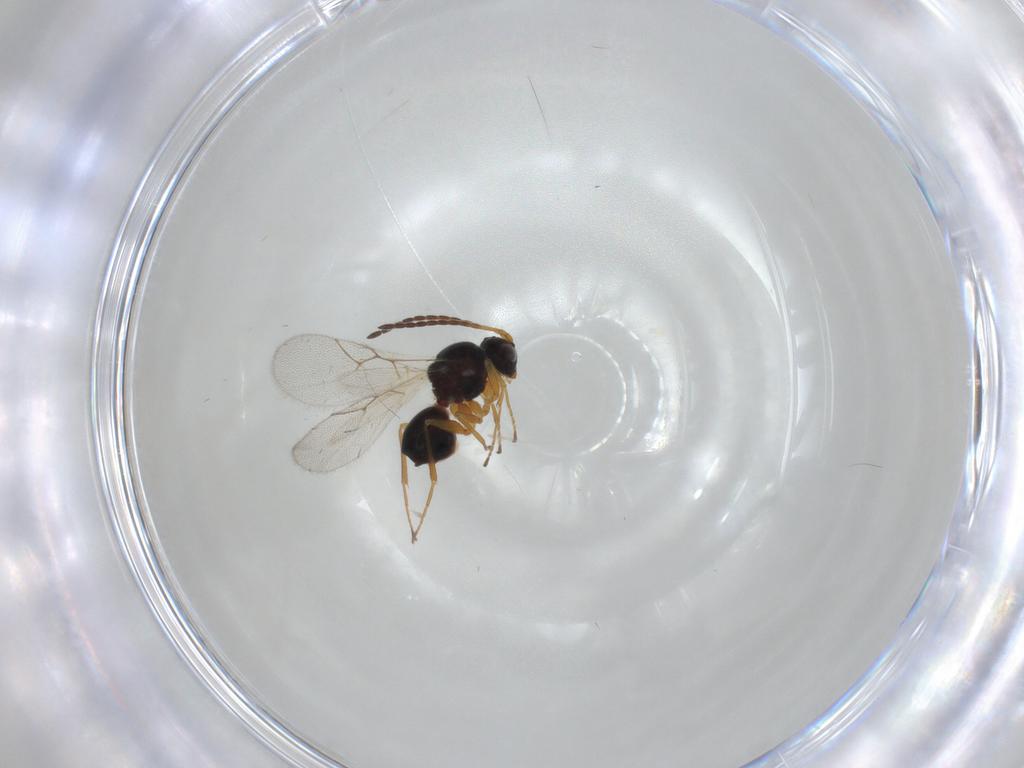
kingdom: Animalia
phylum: Arthropoda
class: Insecta
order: Hymenoptera
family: Figitidae
